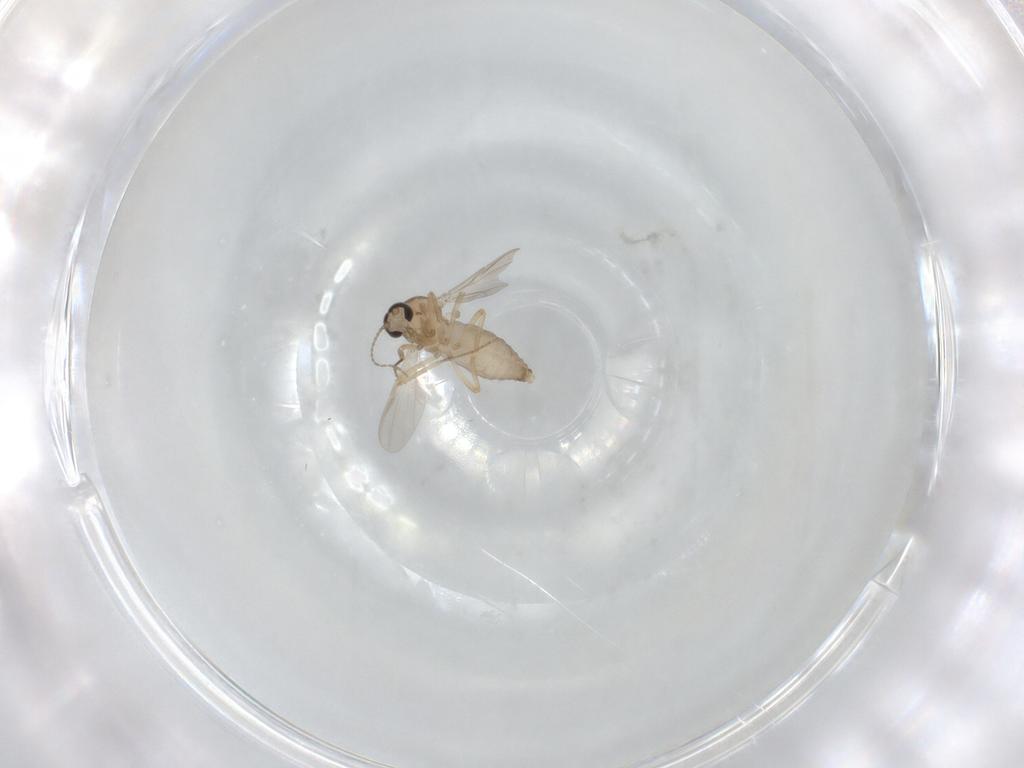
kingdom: Animalia
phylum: Arthropoda
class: Insecta
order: Diptera
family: Ceratopogonidae
